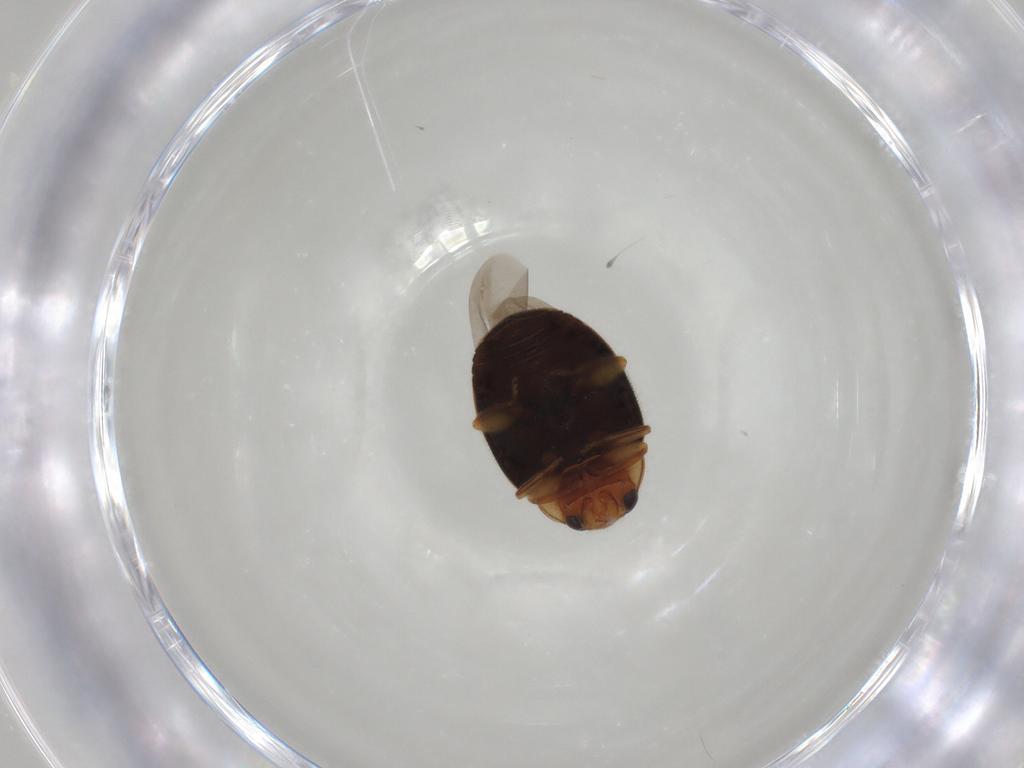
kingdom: Animalia
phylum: Arthropoda
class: Insecta
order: Coleoptera
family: Coccinellidae
